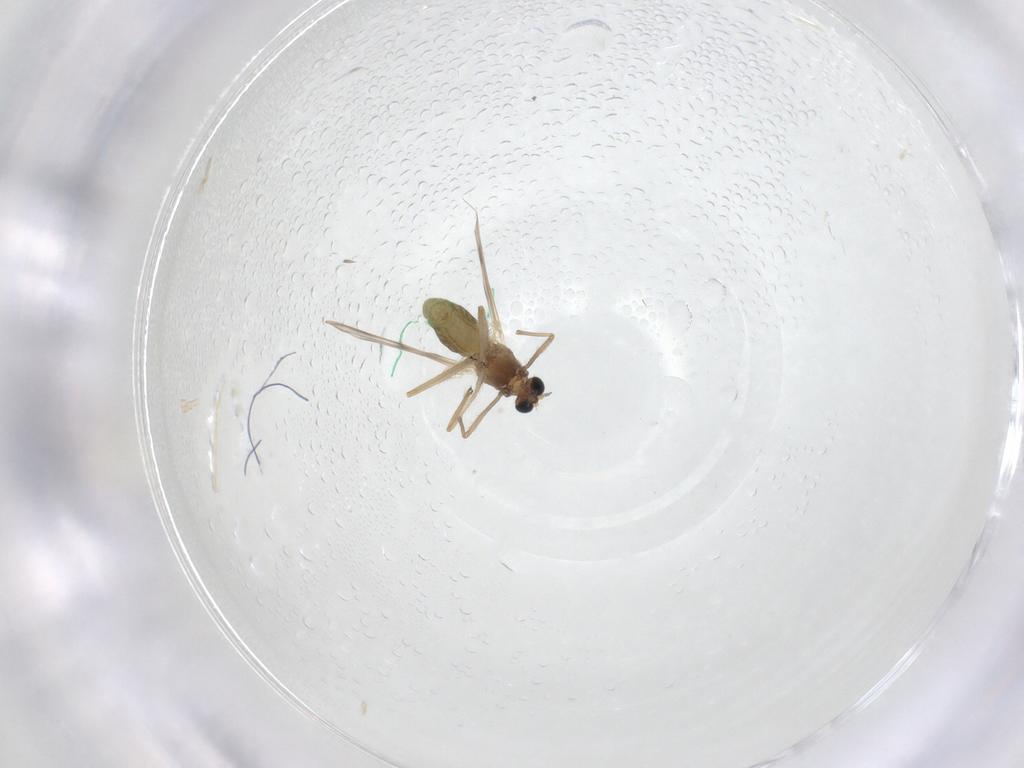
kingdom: Animalia
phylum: Arthropoda
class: Insecta
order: Diptera
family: Chironomidae
